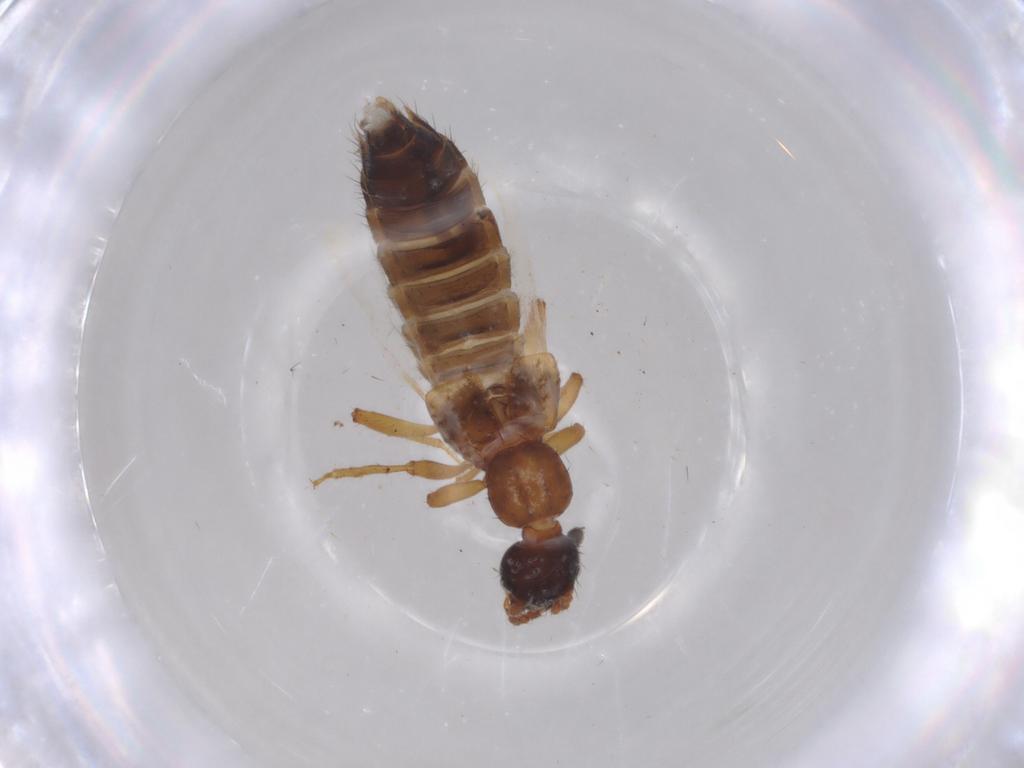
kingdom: Animalia
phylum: Arthropoda
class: Insecta
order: Coleoptera
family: Staphylinidae
